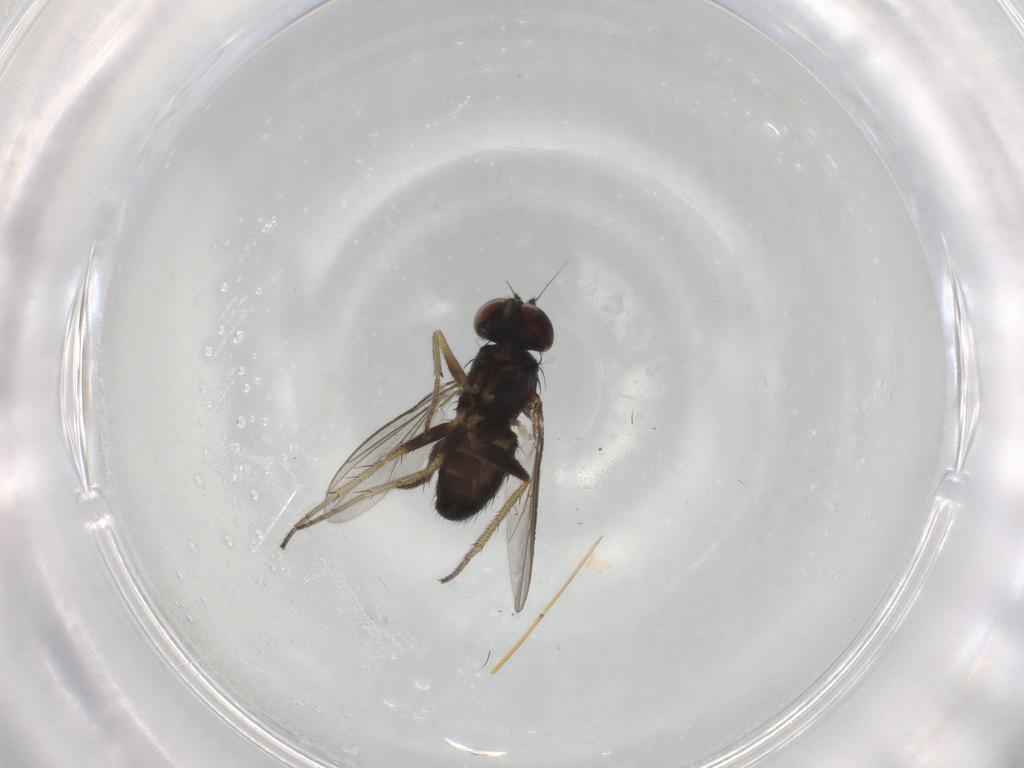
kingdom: Animalia
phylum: Arthropoda
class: Insecta
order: Diptera
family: Dolichopodidae
